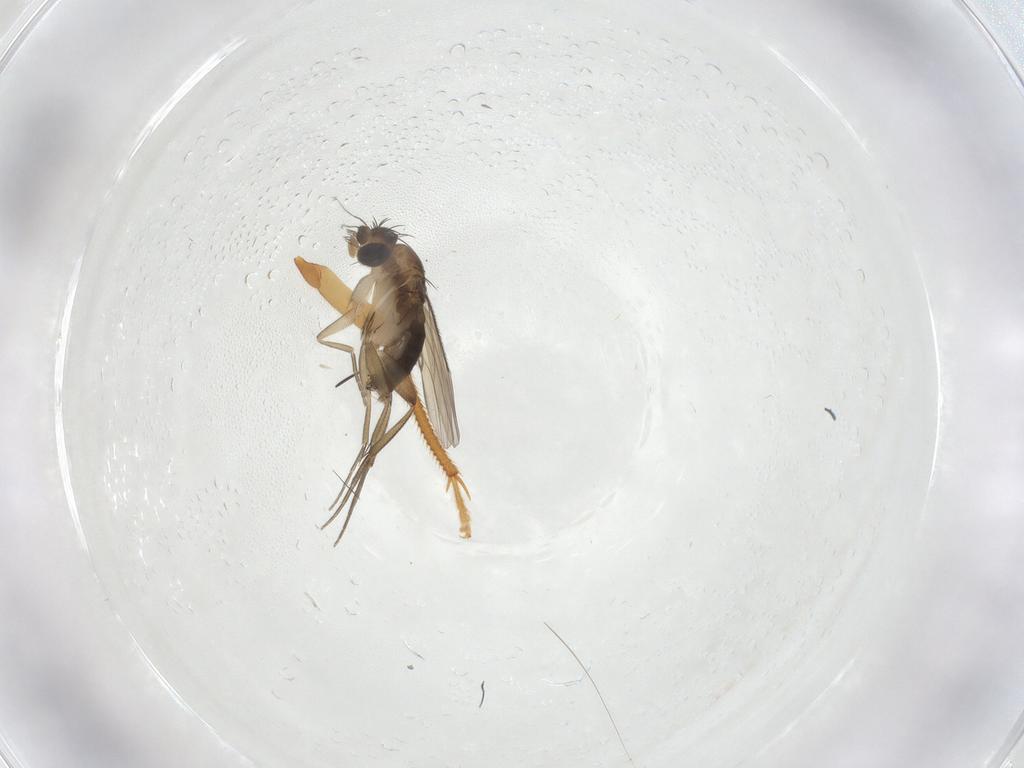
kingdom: Animalia
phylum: Arthropoda
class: Insecta
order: Diptera
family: Phoridae
